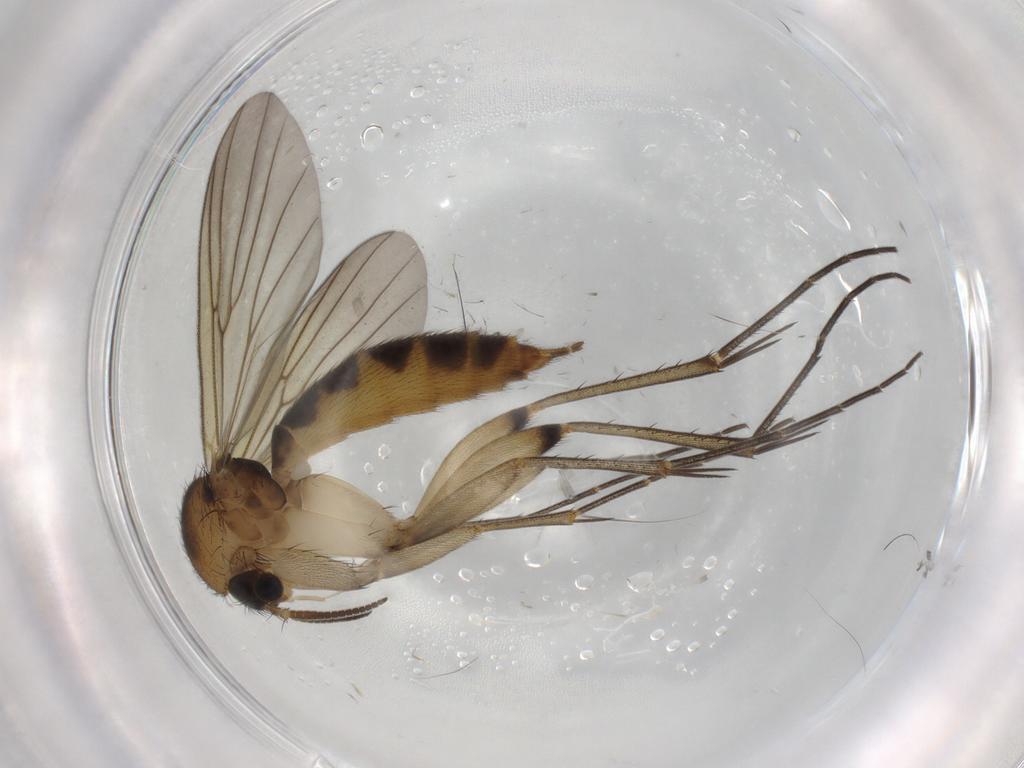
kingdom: Animalia
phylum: Arthropoda
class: Insecta
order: Diptera
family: Mycetophilidae
